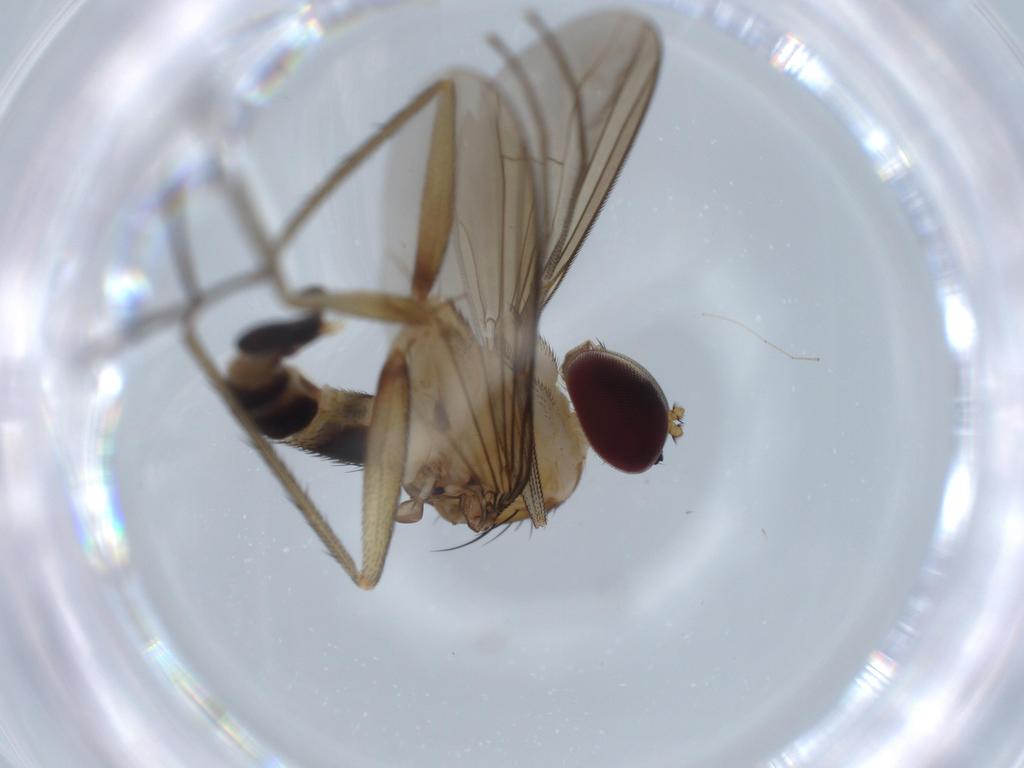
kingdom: Animalia
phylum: Arthropoda
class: Insecta
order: Diptera
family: Dolichopodidae
